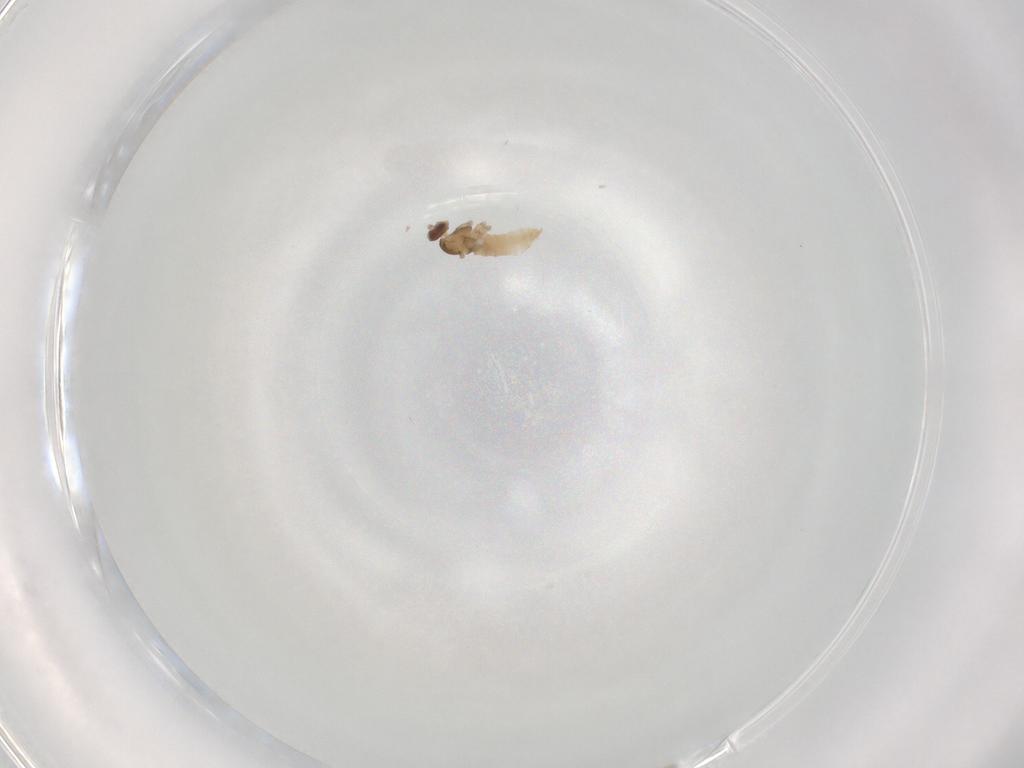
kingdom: Animalia
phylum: Arthropoda
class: Insecta
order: Diptera
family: Cecidomyiidae
